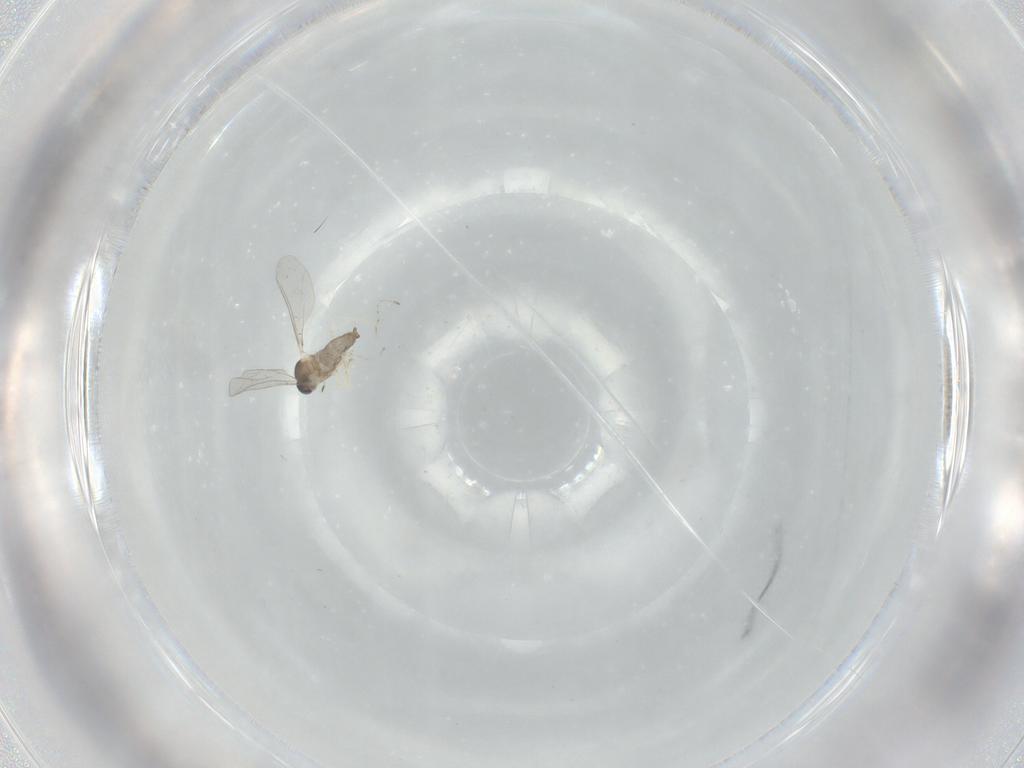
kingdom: Animalia
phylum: Arthropoda
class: Insecta
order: Diptera
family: Cecidomyiidae
